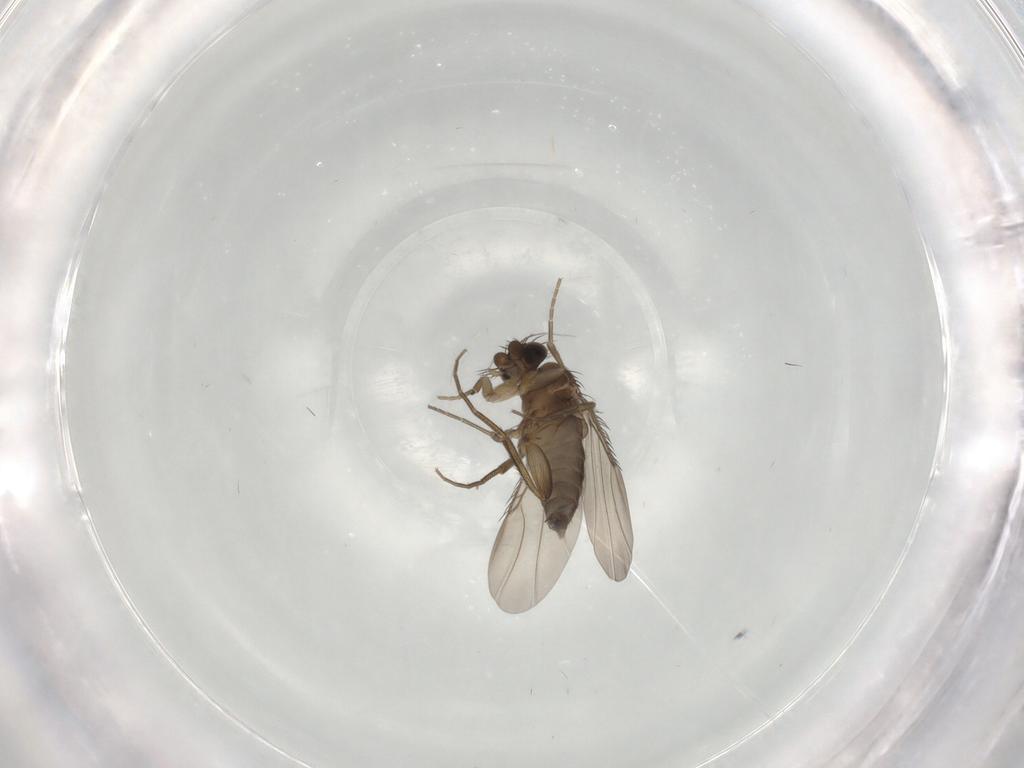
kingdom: Animalia
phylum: Arthropoda
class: Insecta
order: Diptera
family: Phoridae
